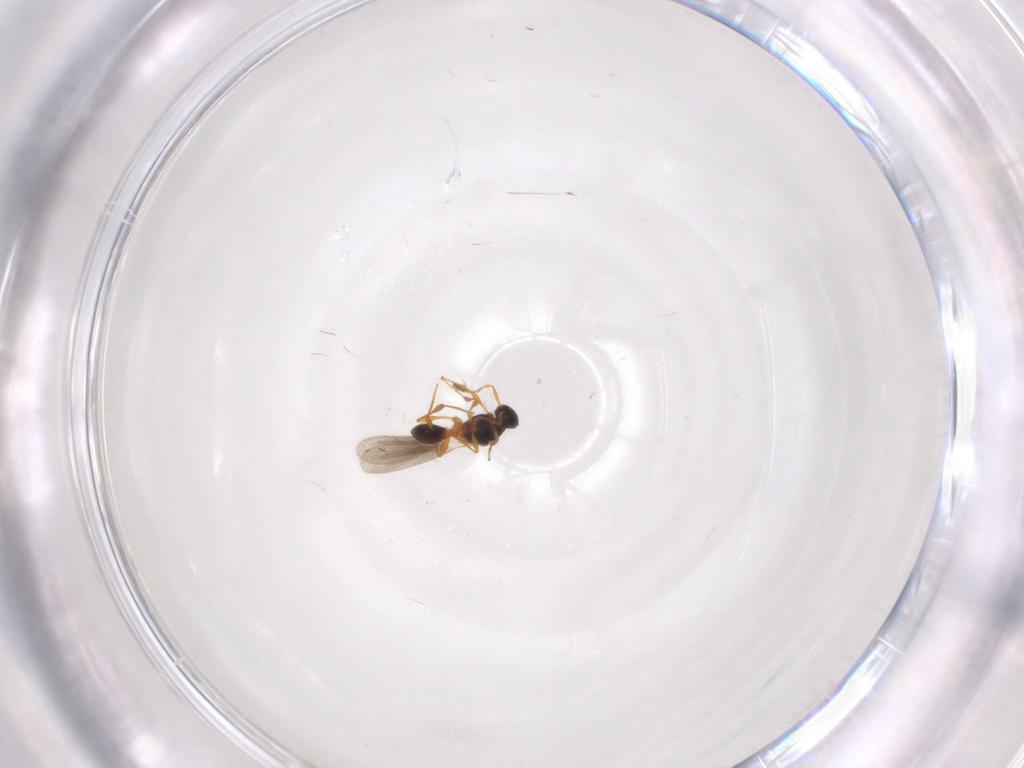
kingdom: Animalia
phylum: Arthropoda
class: Insecta
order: Hymenoptera
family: Platygastridae
